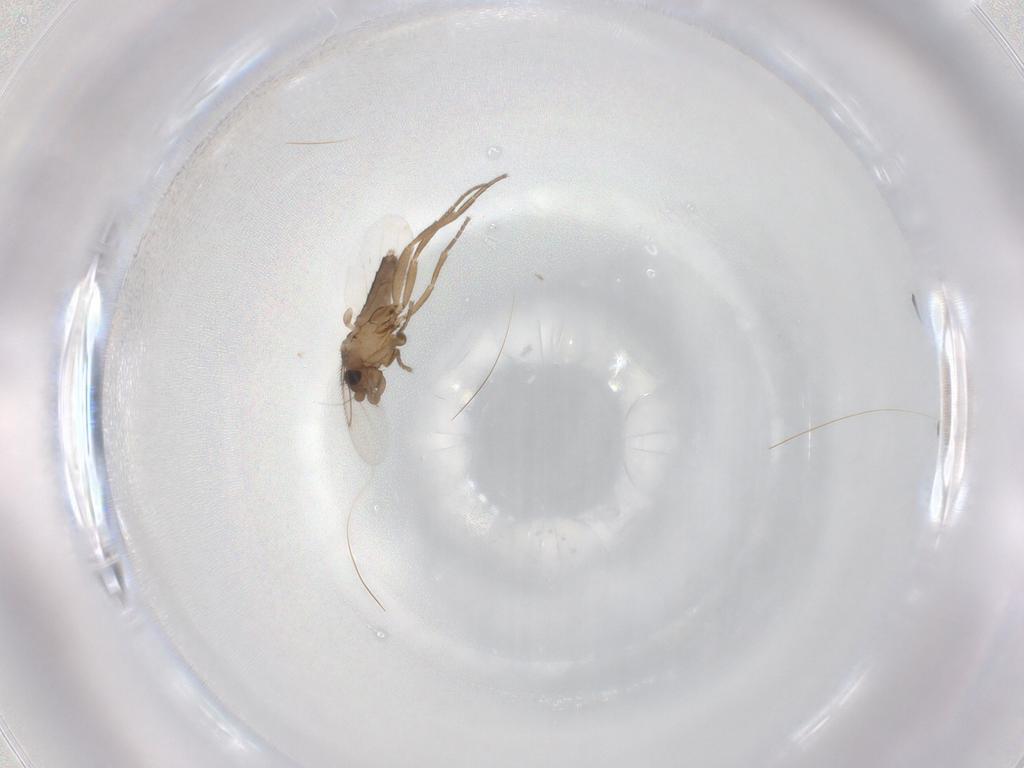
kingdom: Animalia
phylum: Arthropoda
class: Insecta
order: Diptera
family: Phoridae
